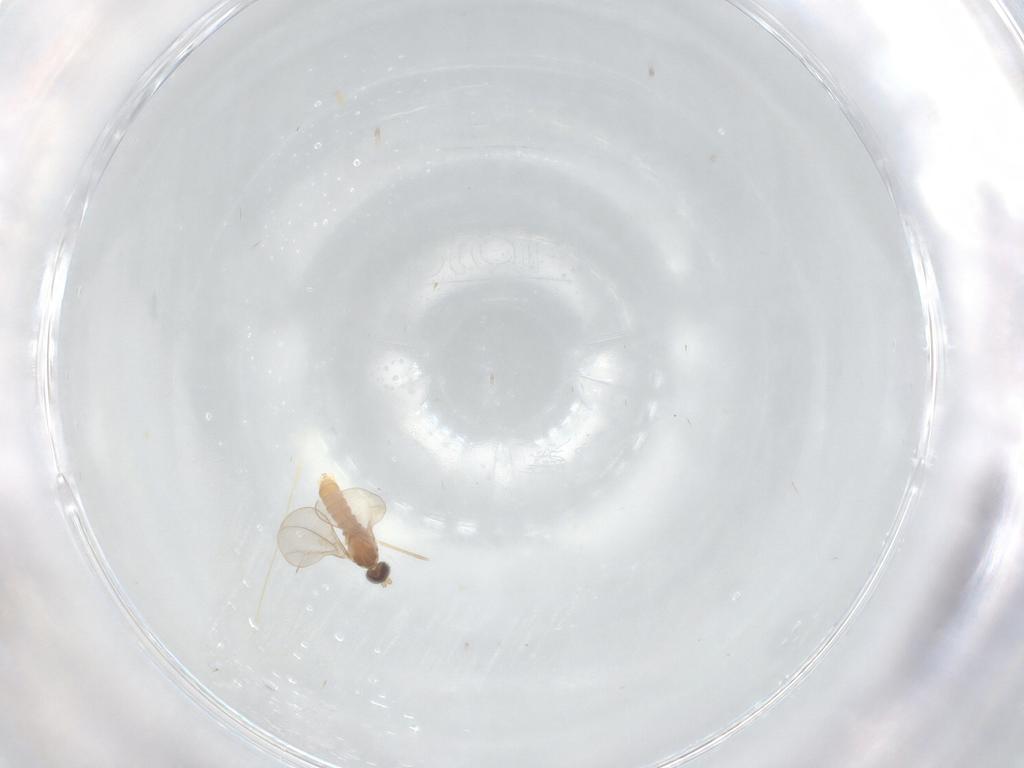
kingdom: Animalia
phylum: Arthropoda
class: Insecta
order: Diptera
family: Cecidomyiidae
